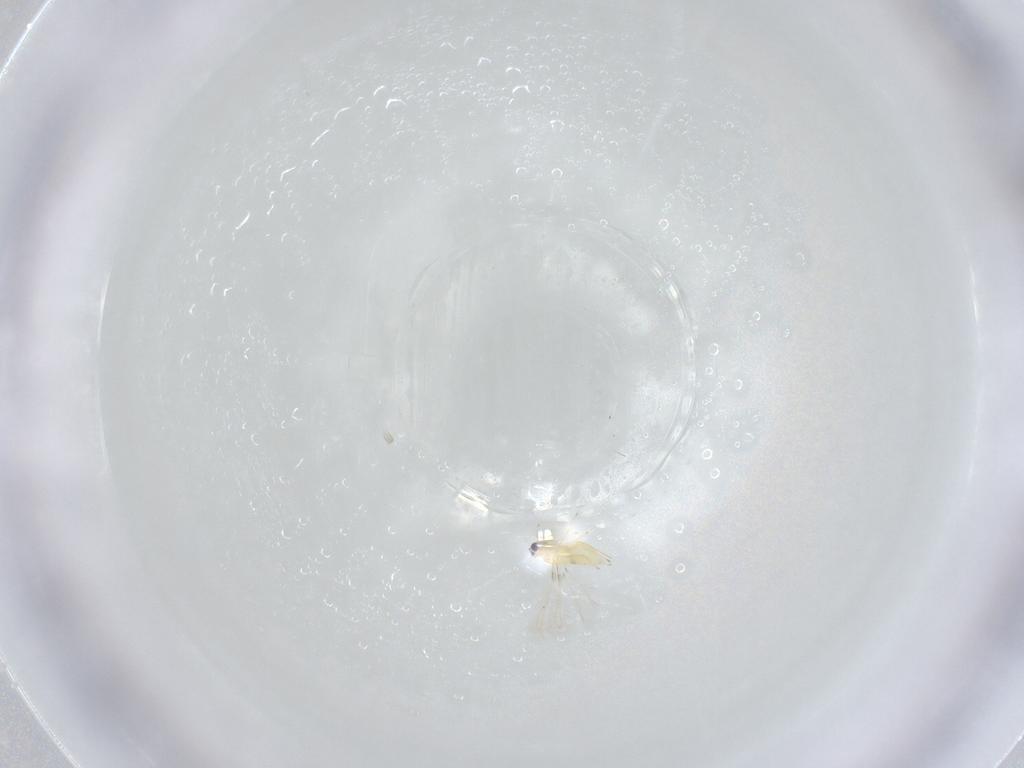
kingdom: Animalia
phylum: Arthropoda
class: Insecta
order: Hymenoptera
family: Mymaridae
